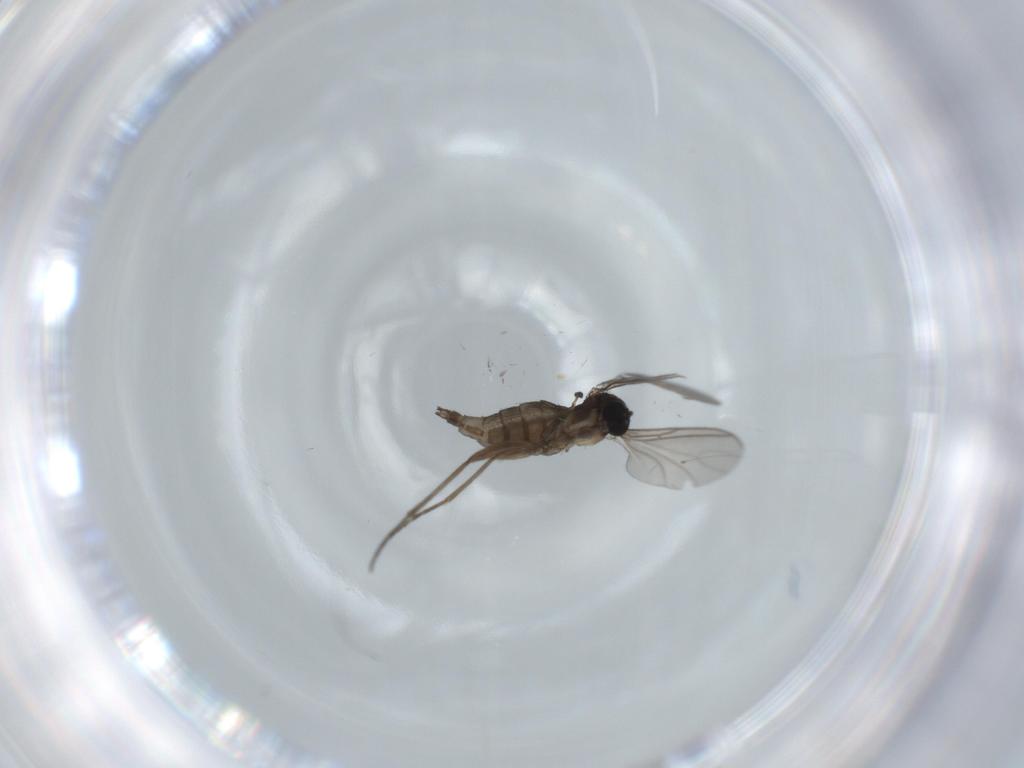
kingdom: Animalia
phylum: Arthropoda
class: Insecta
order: Diptera
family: Sciaridae
